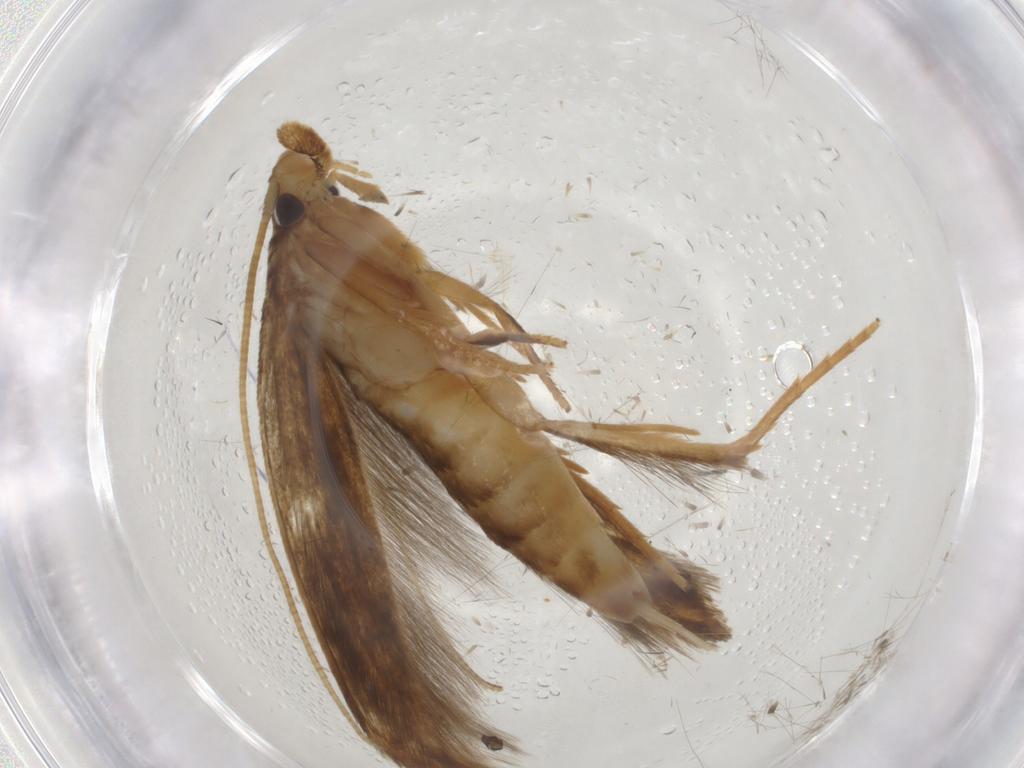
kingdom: Animalia
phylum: Arthropoda
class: Insecta
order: Lepidoptera
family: Tineidae
